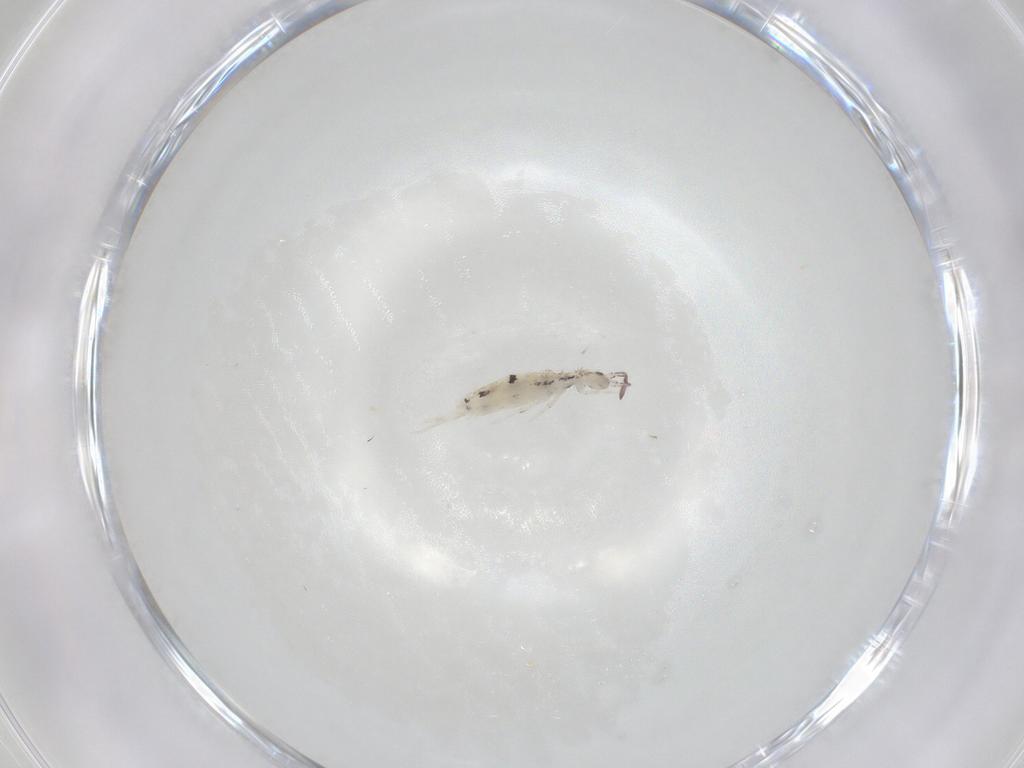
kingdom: Animalia
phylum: Arthropoda
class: Collembola
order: Entomobryomorpha
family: Entomobryidae
